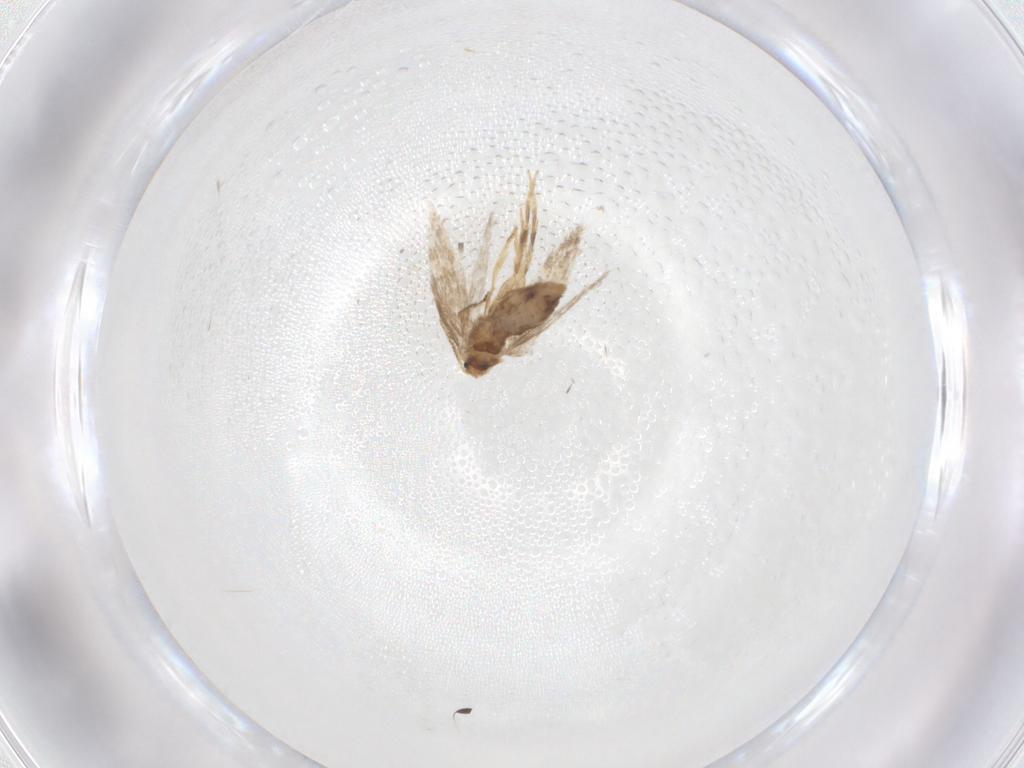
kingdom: Animalia
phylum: Arthropoda
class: Insecta
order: Lepidoptera
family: Nepticulidae
